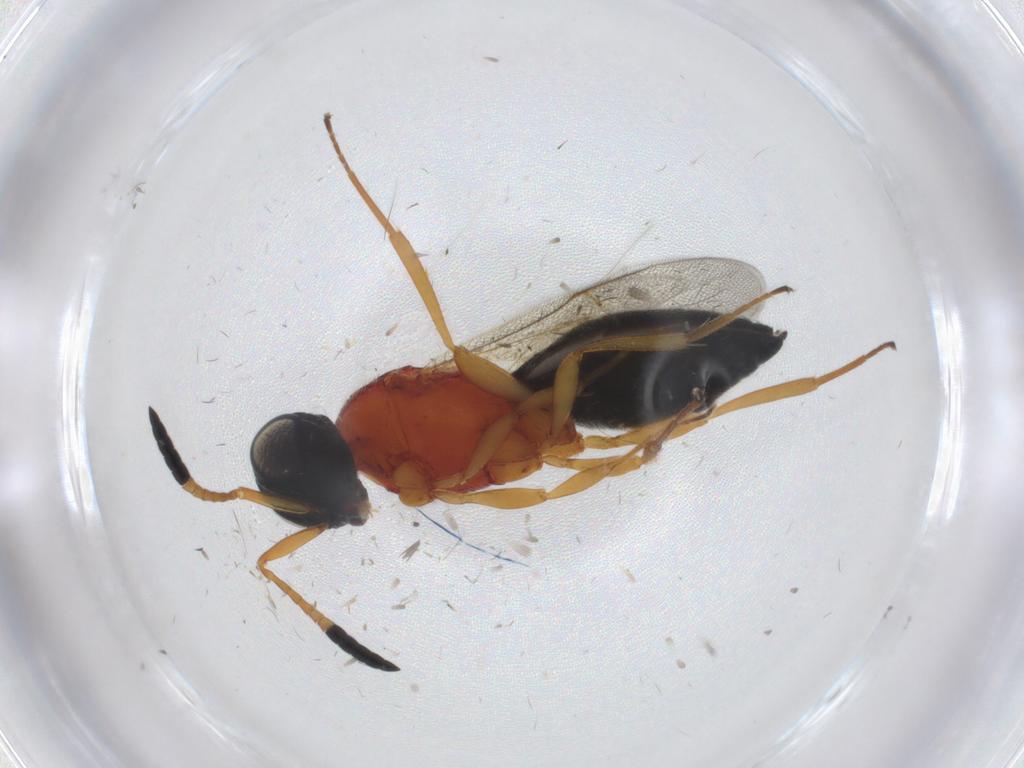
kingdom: Animalia
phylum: Arthropoda
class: Insecta
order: Hymenoptera
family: Scelionidae
